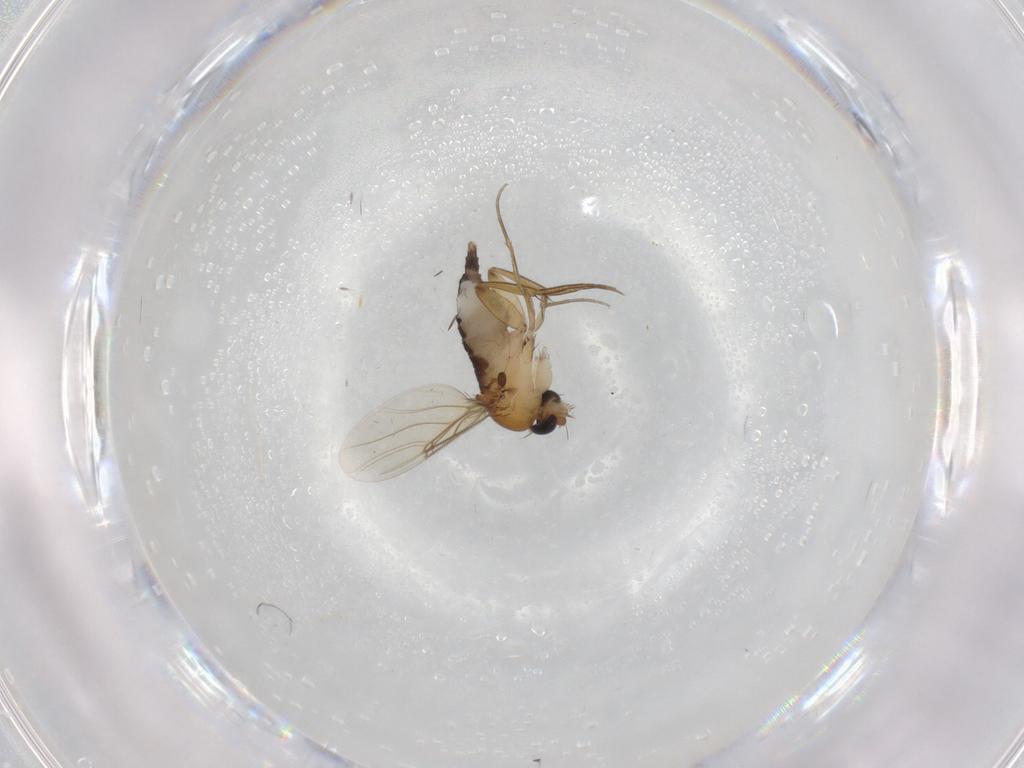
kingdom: Animalia
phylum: Arthropoda
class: Insecta
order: Diptera
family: Phoridae
